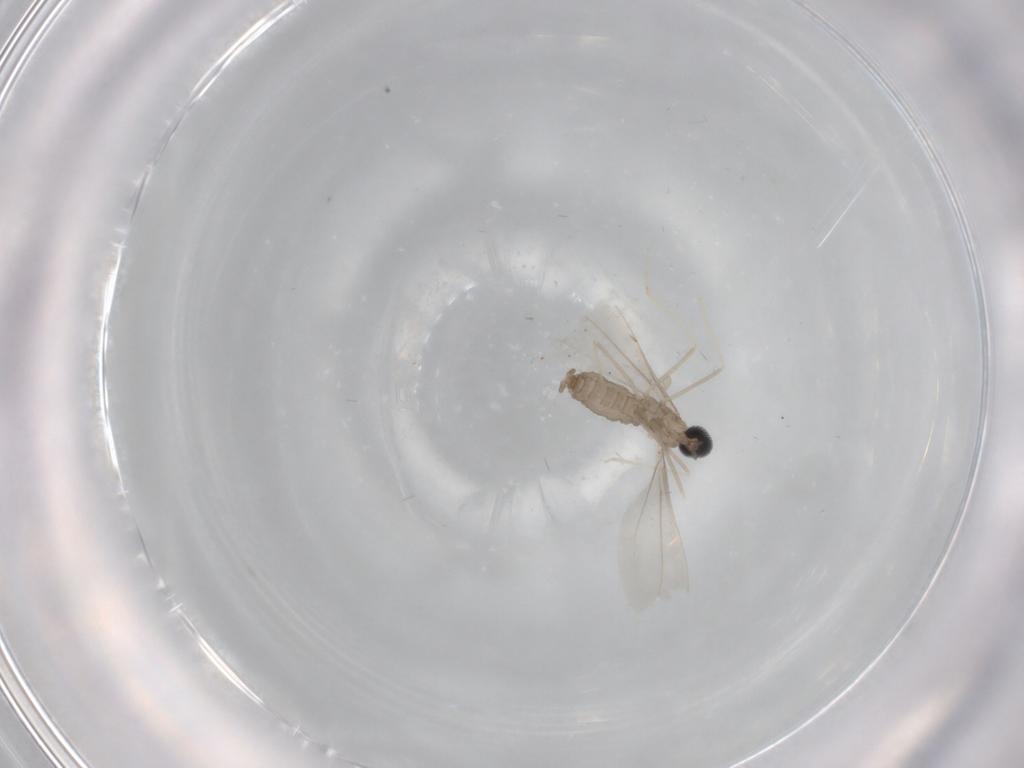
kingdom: Animalia
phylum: Arthropoda
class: Insecta
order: Diptera
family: Cecidomyiidae
